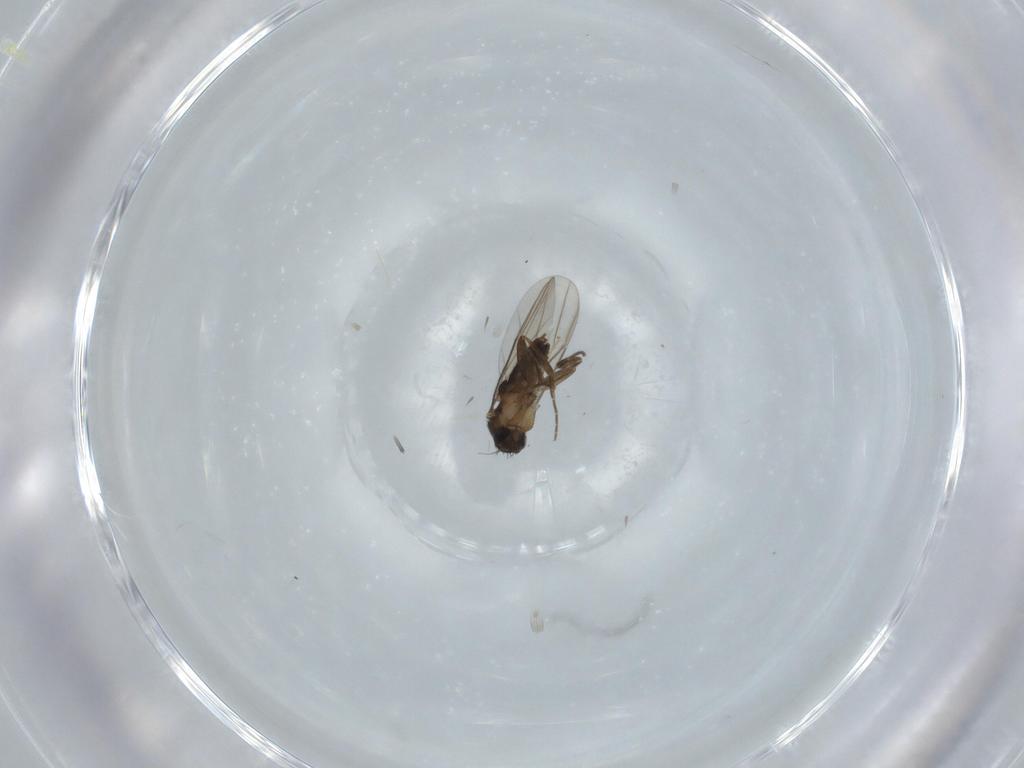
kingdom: Animalia
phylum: Arthropoda
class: Insecta
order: Diptera
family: Phoridae
